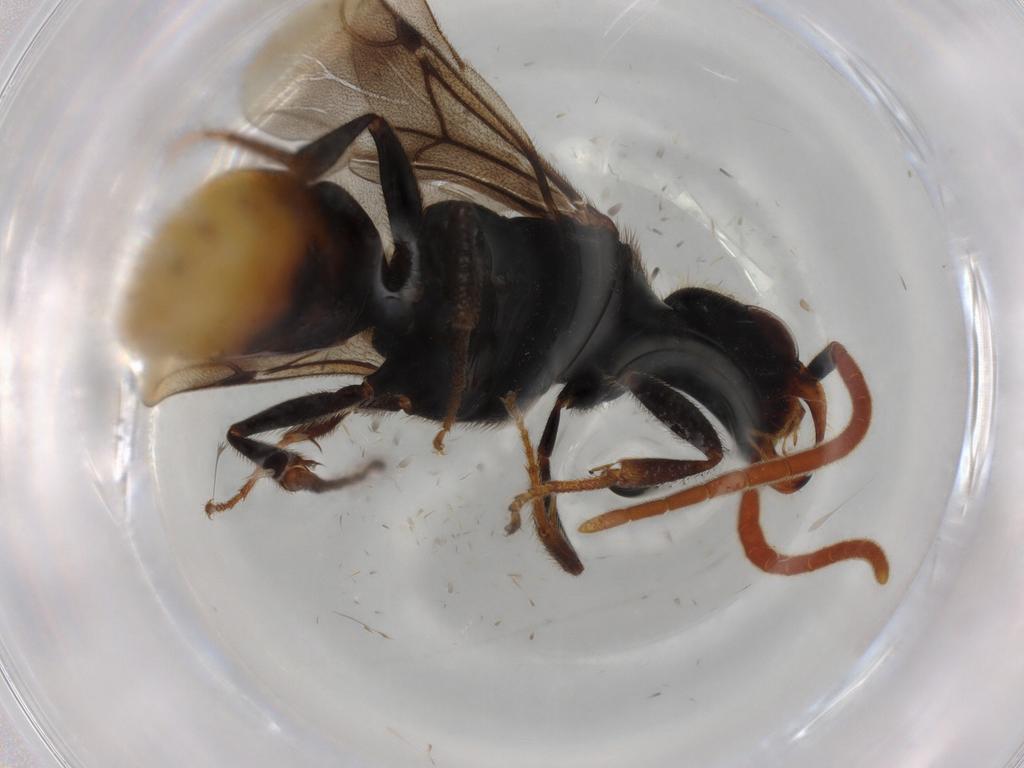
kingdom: Animalia
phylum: Arthropoda
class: Insecta
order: Hymenoptera
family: Bethylidae
